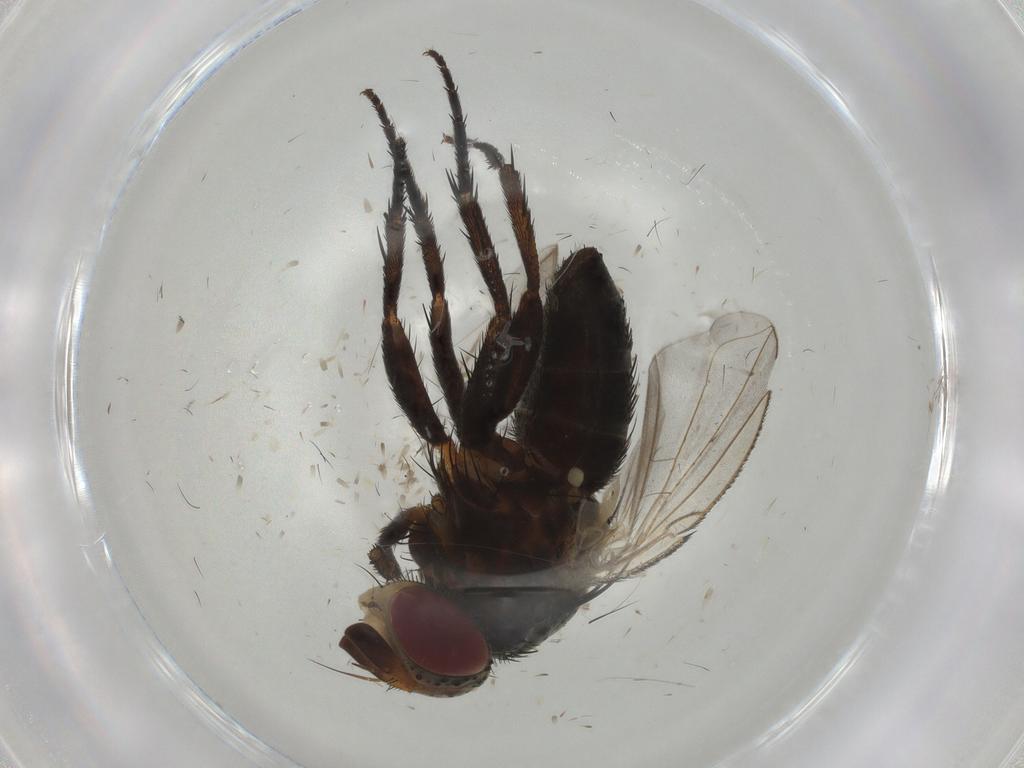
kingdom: Animalia
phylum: Arthropoda
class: Insecta
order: Diptera
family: Tachinidae
